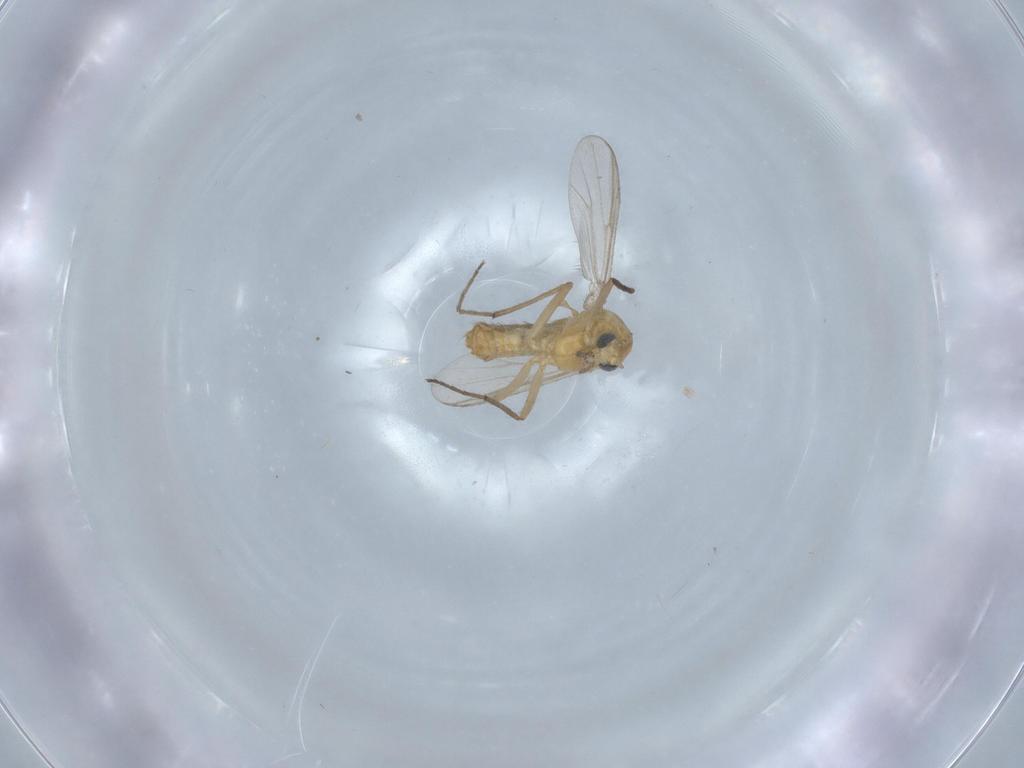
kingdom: Animalia
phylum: Arthropoda
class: Insecta
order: Diptera
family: Chironomidae
